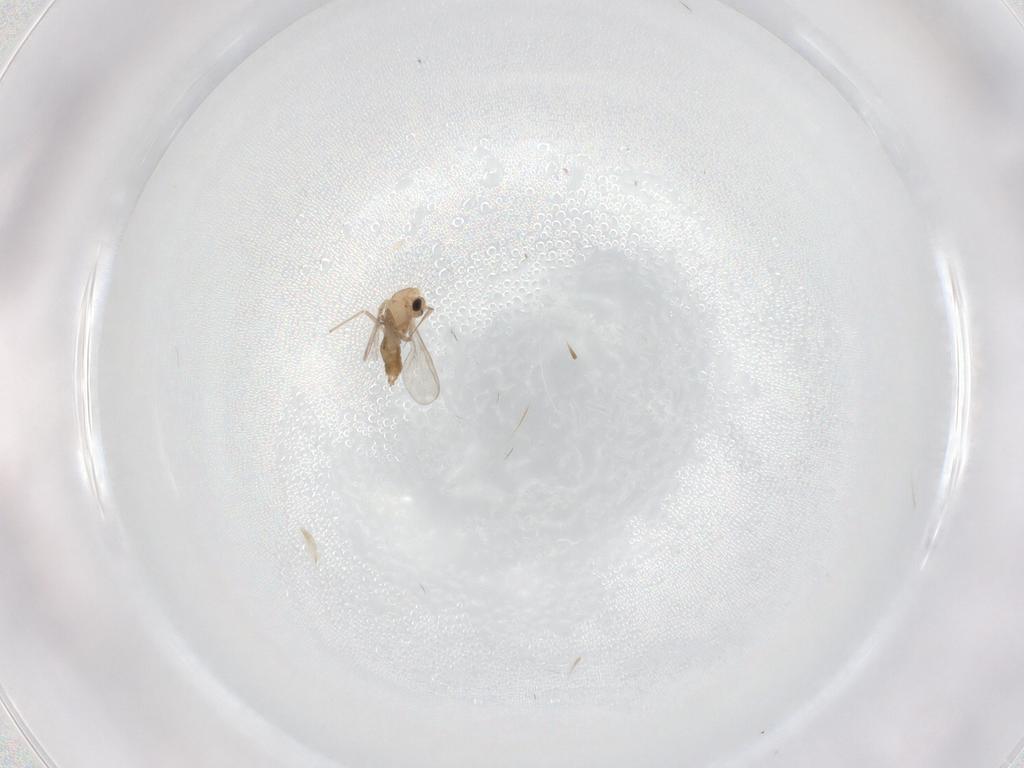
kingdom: Animalia
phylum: Arthropoda
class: Insecta
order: Diptera
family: Chironomidae
